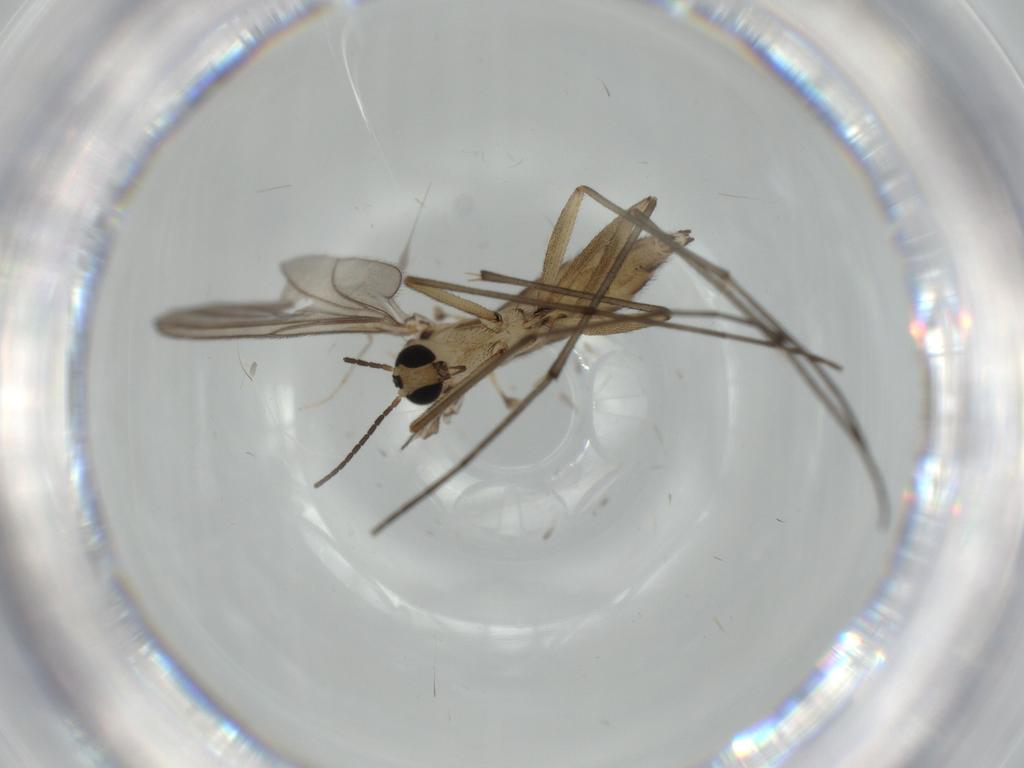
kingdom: Animalia
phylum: Arthropoda
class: Insecta
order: Diptera
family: Sciaridae
